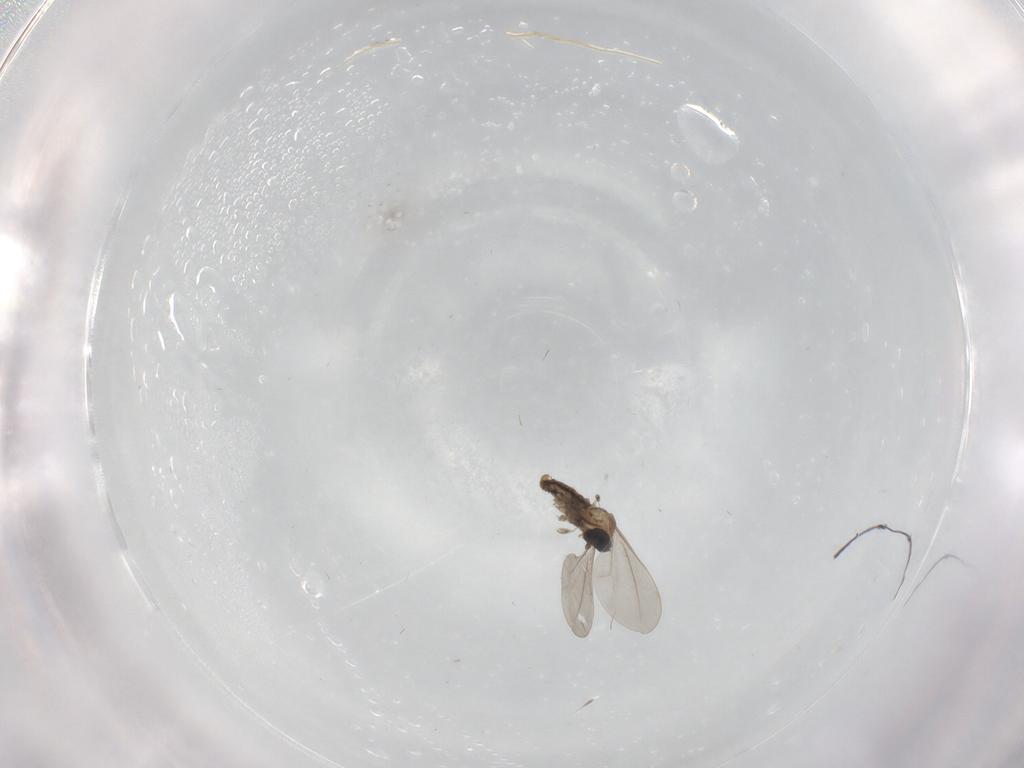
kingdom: Animalia
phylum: Arthropoda
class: Insecta
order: Diptera
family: Cecidomyiidae
